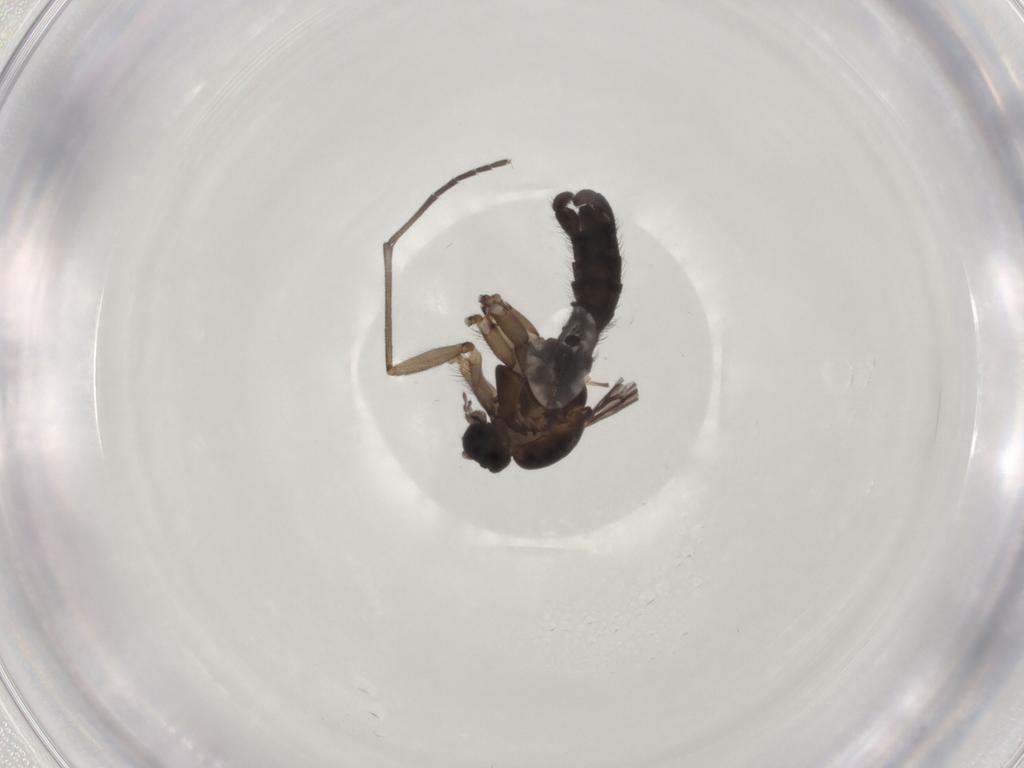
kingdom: Animalia
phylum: Arthropoda
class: Insecta
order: Diptera
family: Sciaridae
